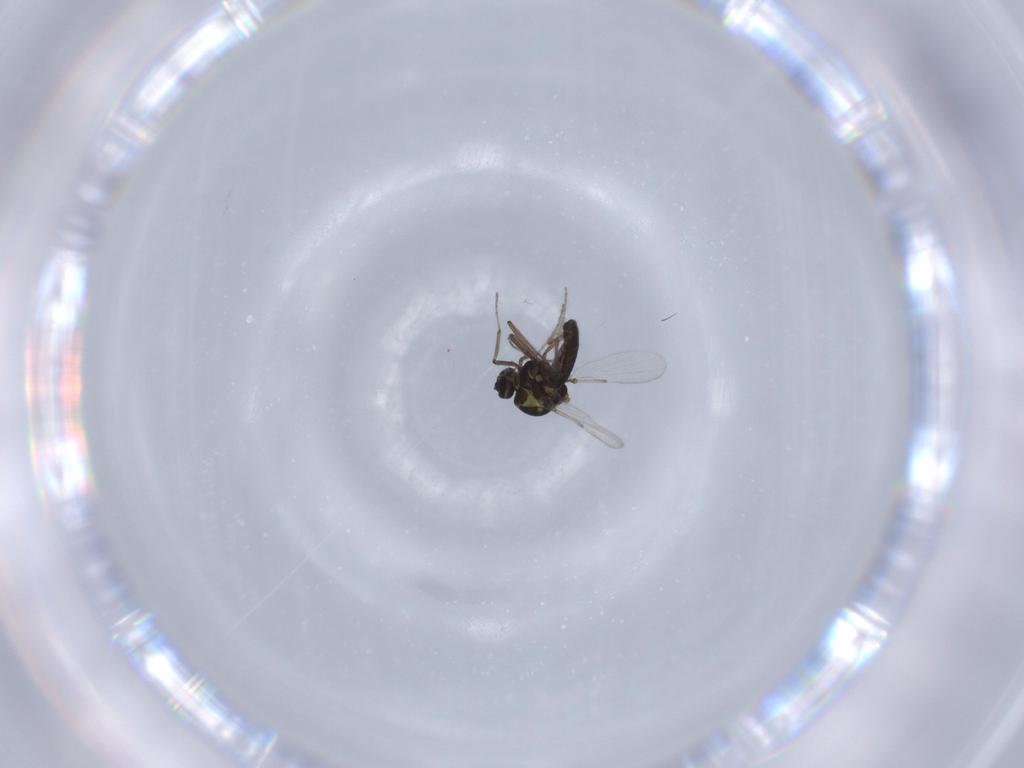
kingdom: Animalia
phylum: Arthropoda
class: Insecta
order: Diptera
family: Ceratopogonidae
